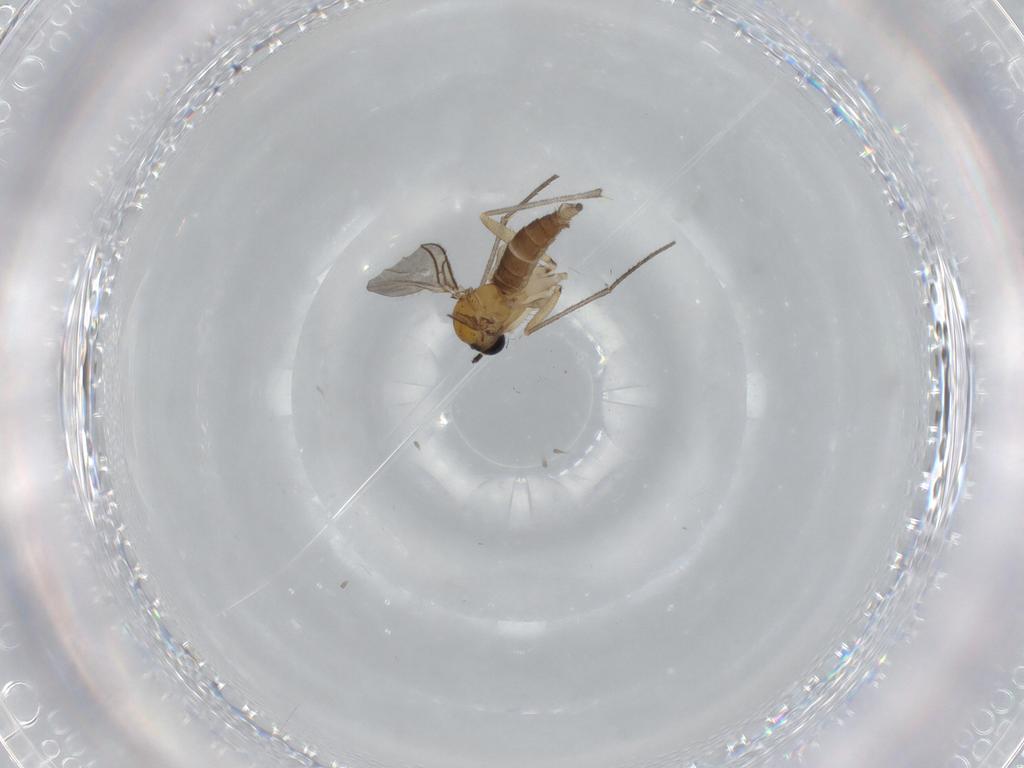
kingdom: Animalia
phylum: Arthropoda
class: Insecta
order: Diptera
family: Sciaridae
